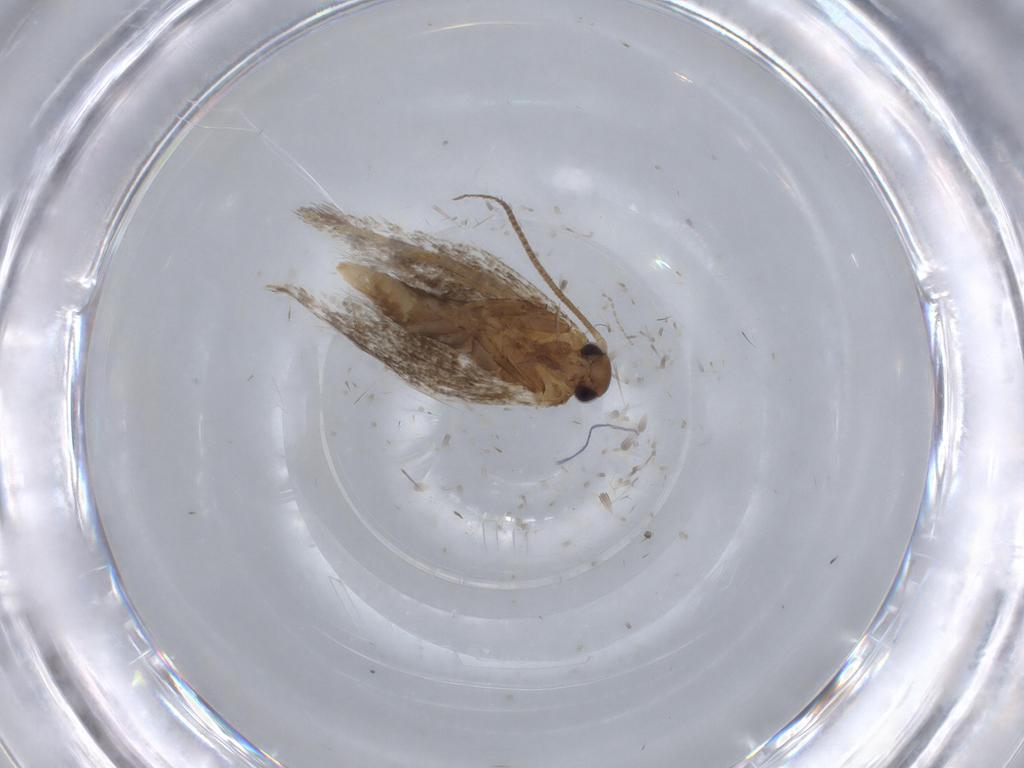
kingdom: Animalia
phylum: Arthropoda
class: Insecta
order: Lepidoptera
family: Elachistidae
